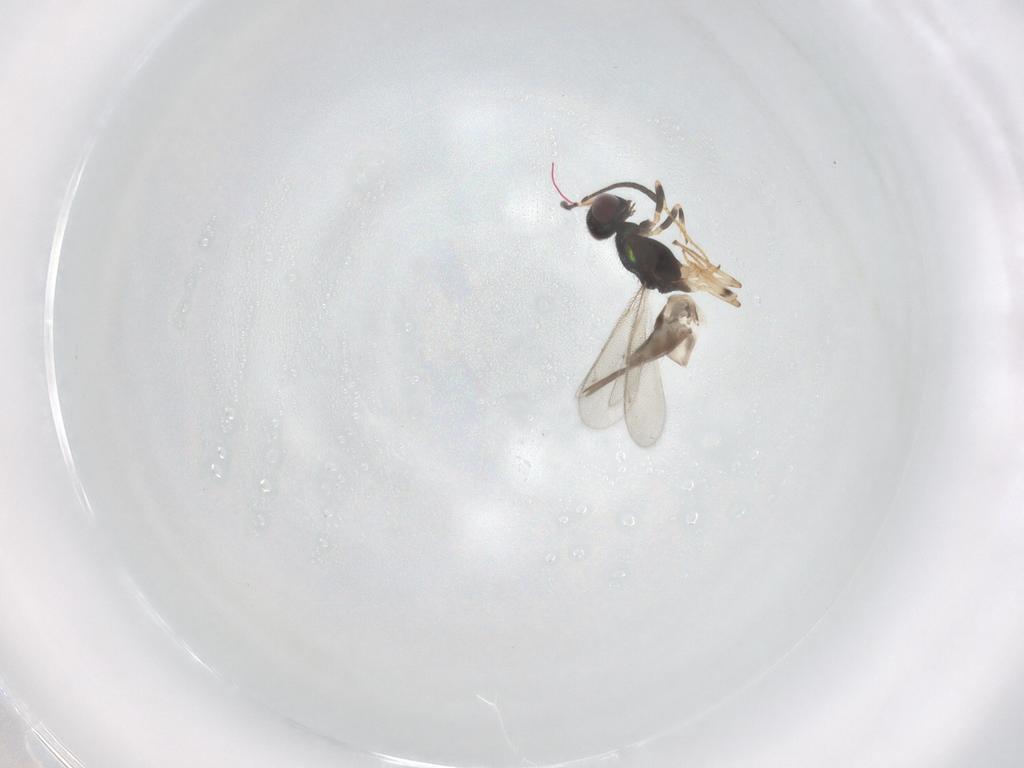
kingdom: Animalia
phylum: Arthropoda
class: Insecta
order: Hymenoptera
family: Eupelmidae
